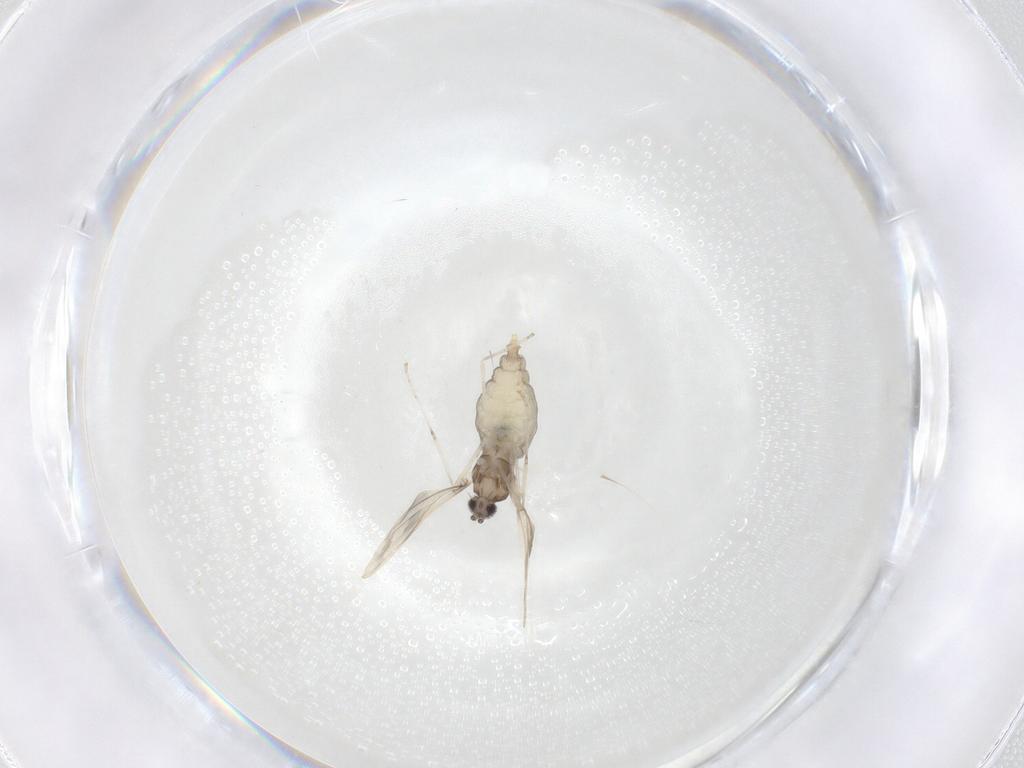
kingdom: Animalia
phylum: Arthropoda
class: Insecta
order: Diptera
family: Cecidomyiidae
